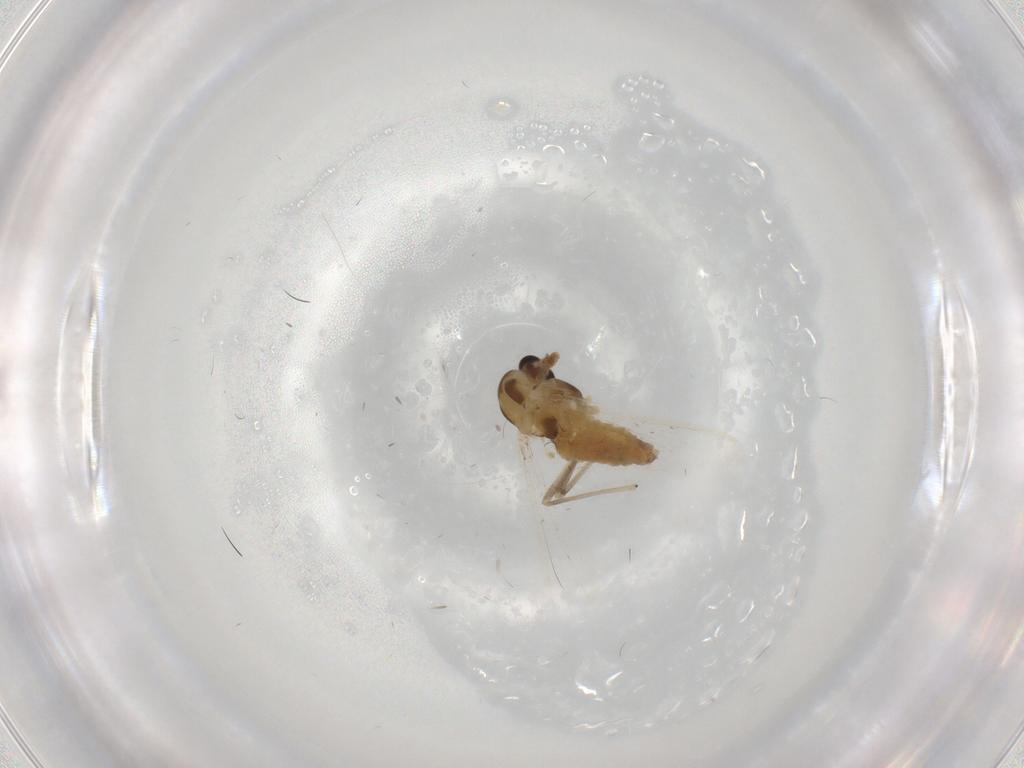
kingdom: Animalia
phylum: Arthropoda
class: Insecta
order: Diptera
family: Chironomidae
